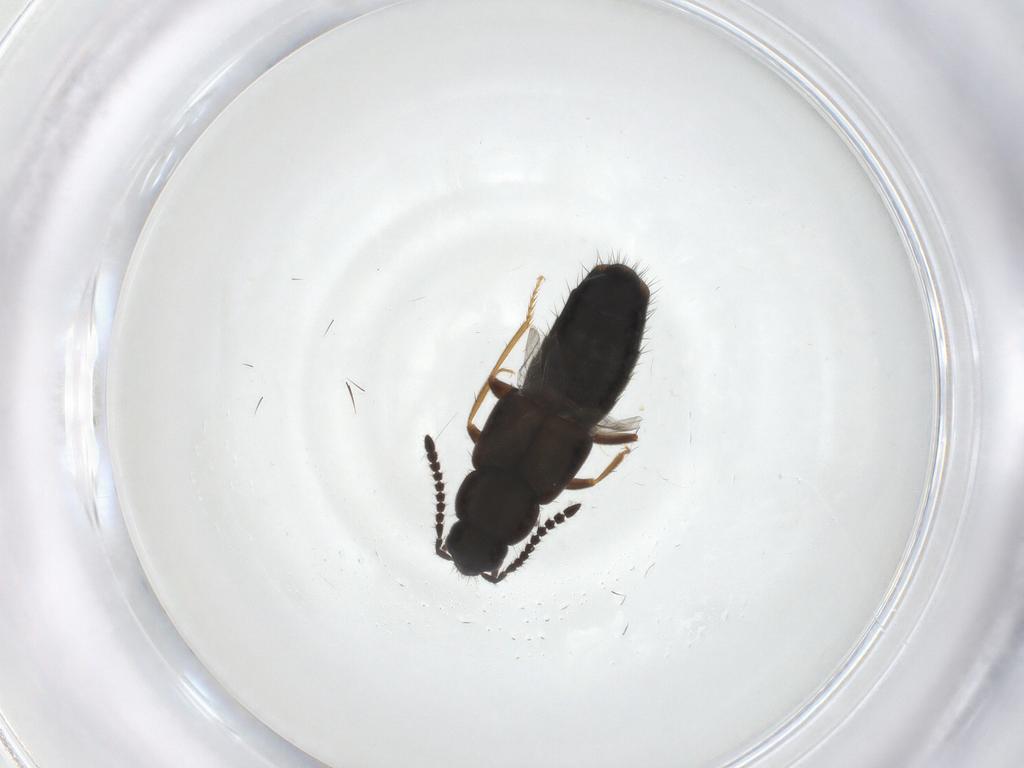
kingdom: Animalia
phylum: Arthropoda
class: Insecta
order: Coleoptera
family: Staphylinidae
